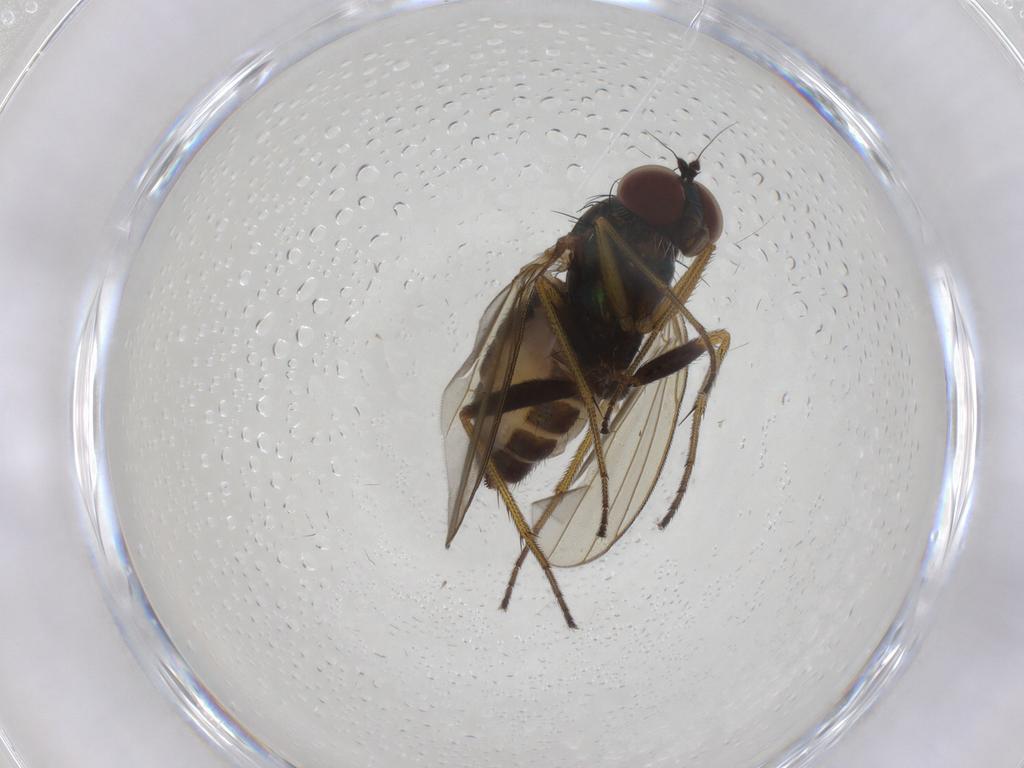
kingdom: Animalia
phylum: Arthropoda
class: Insecta
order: Diptera
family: Dolichopodidae
